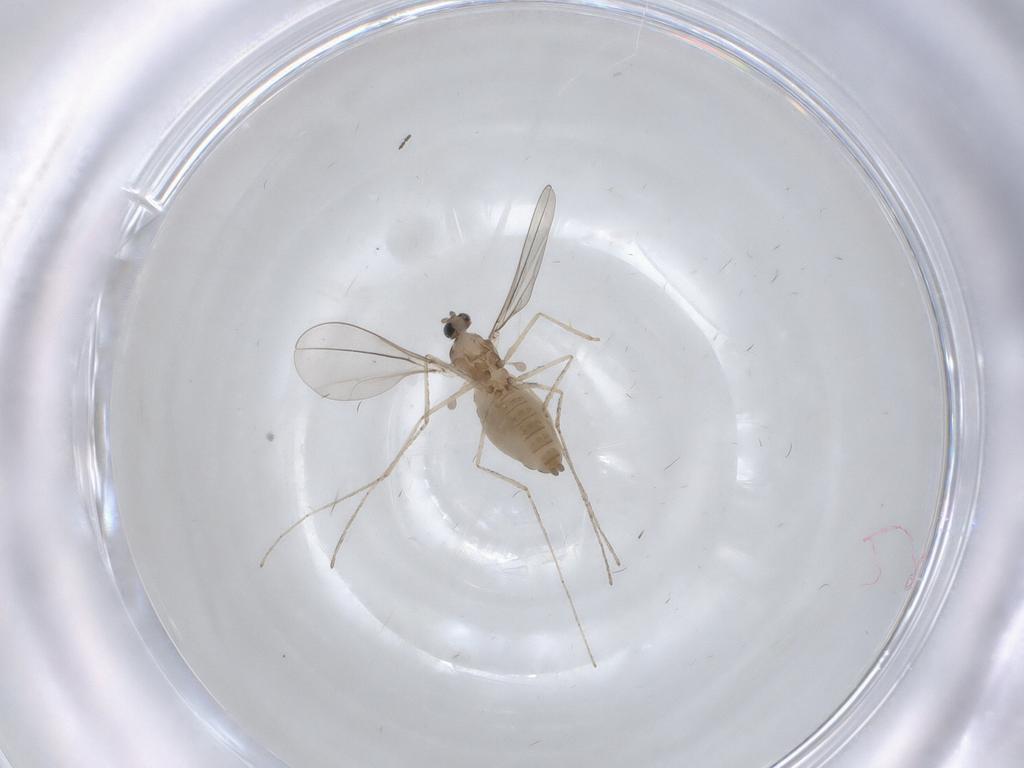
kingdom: Animalia
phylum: Arthropoda
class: Insecta
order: Diptera
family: Cecidomyiidae
